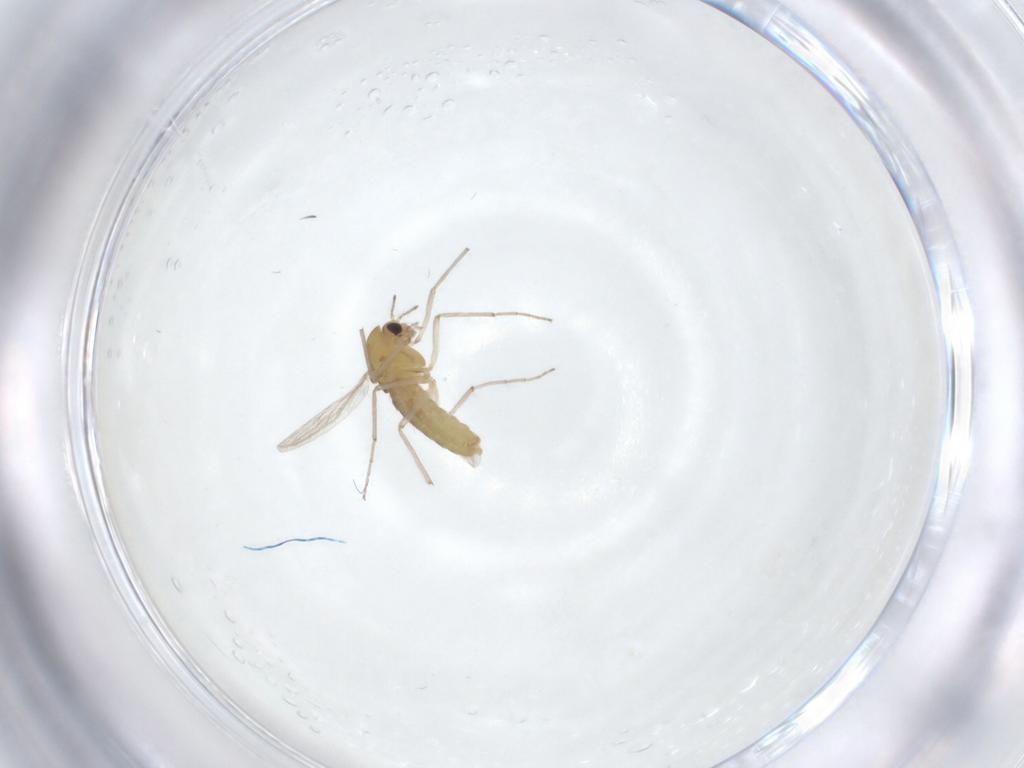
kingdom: Animalia
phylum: Arthropoda
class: Insecta
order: Diptera
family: Chironomidae
